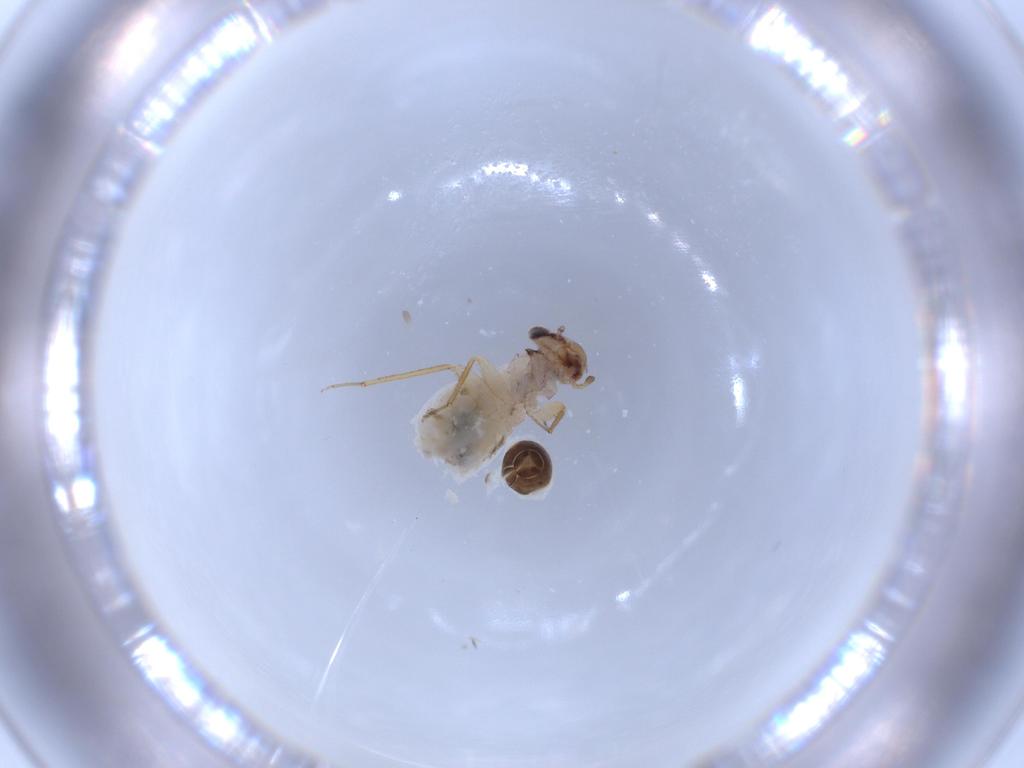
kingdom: Animalia
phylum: Arthropoda
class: Insecta
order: Psocodea
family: Lepidopsocidae
